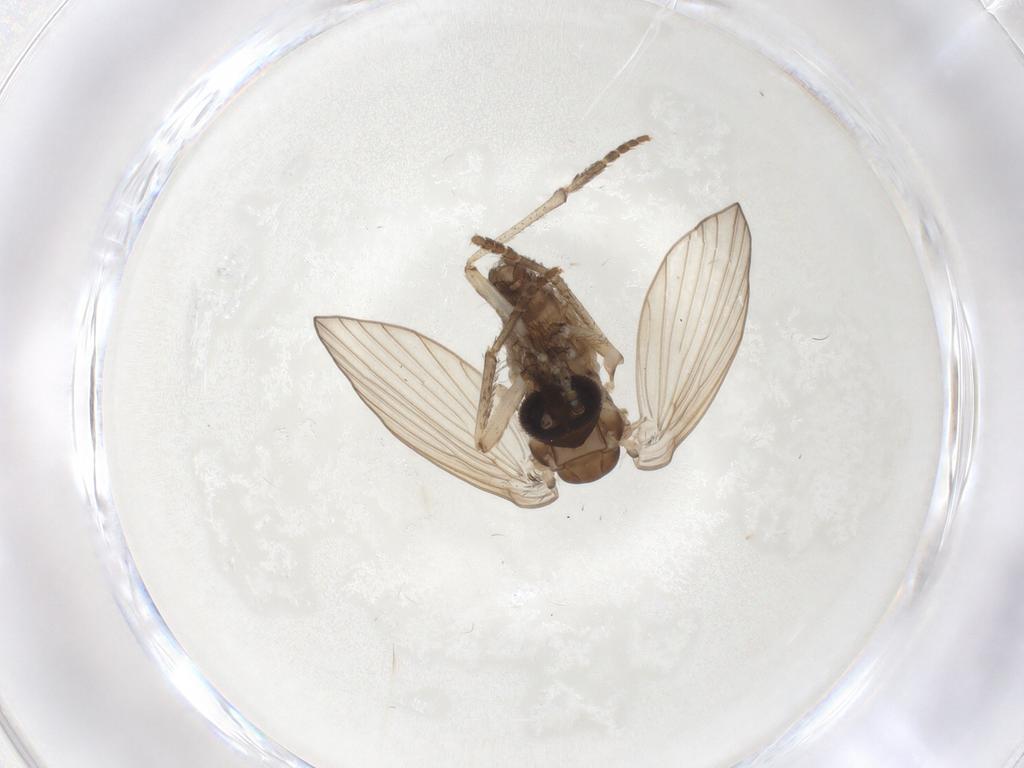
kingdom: Animalia
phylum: Arthropoda
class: Insecta
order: Diptera
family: Psychodidae
